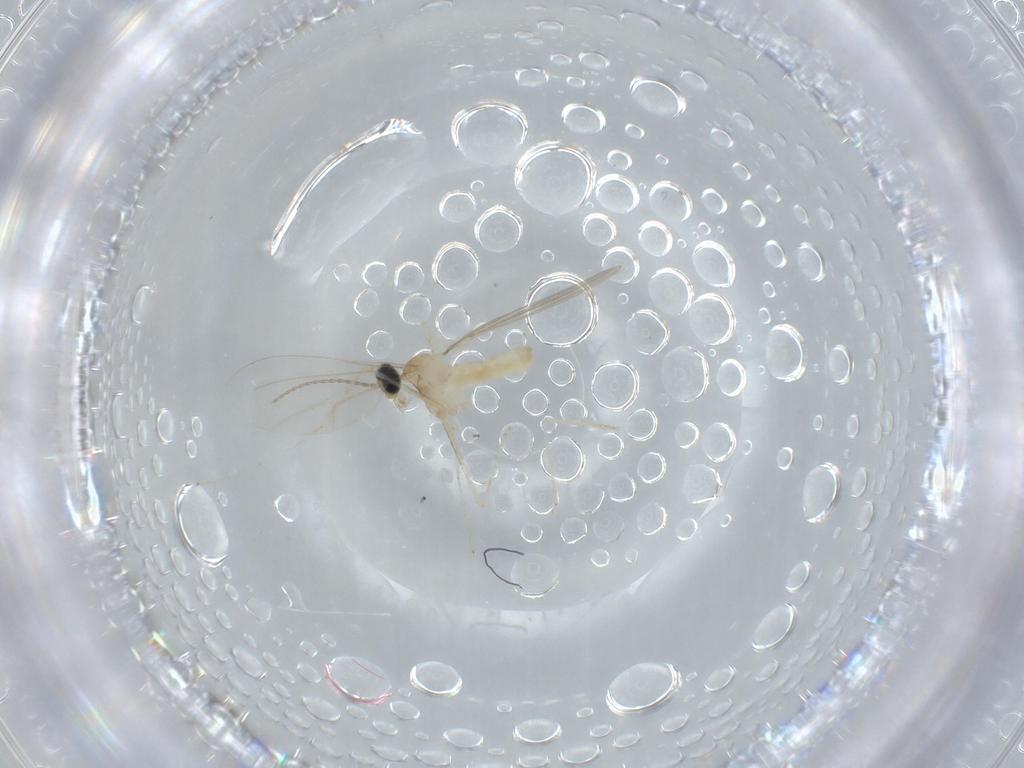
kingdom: Animalia
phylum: Arthropoda
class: Insecta
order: Diptera
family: Cecidomyiidae
